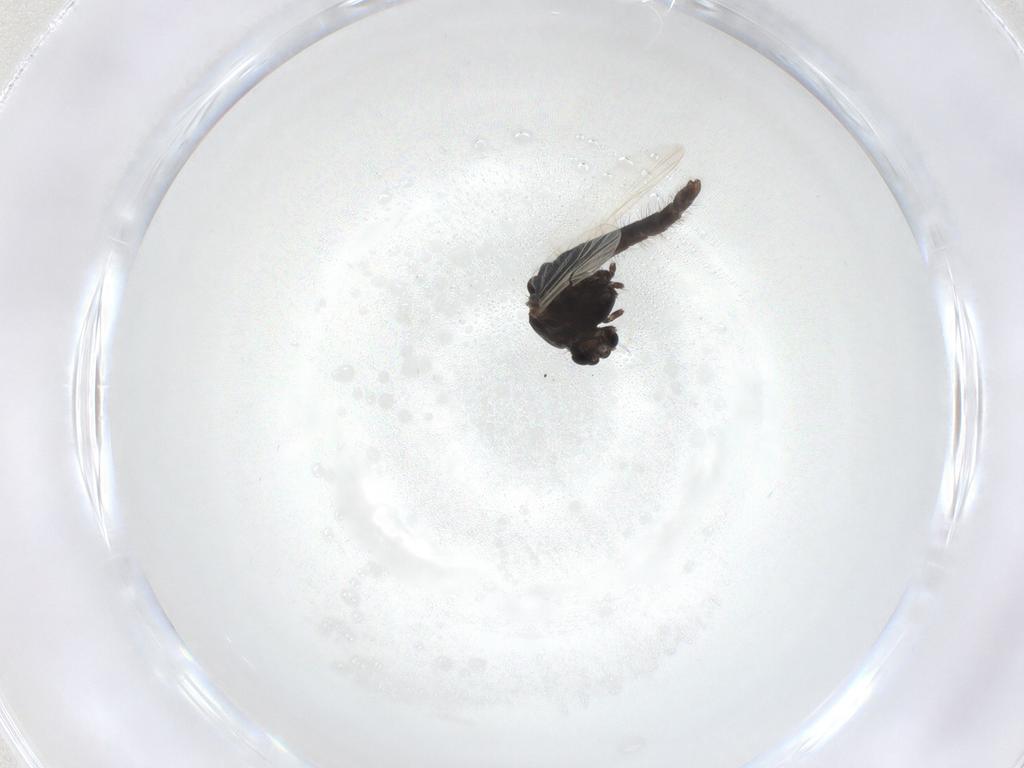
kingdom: Animalia
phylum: Arthropoda
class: Insecta
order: Diptera
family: Chironomidae
